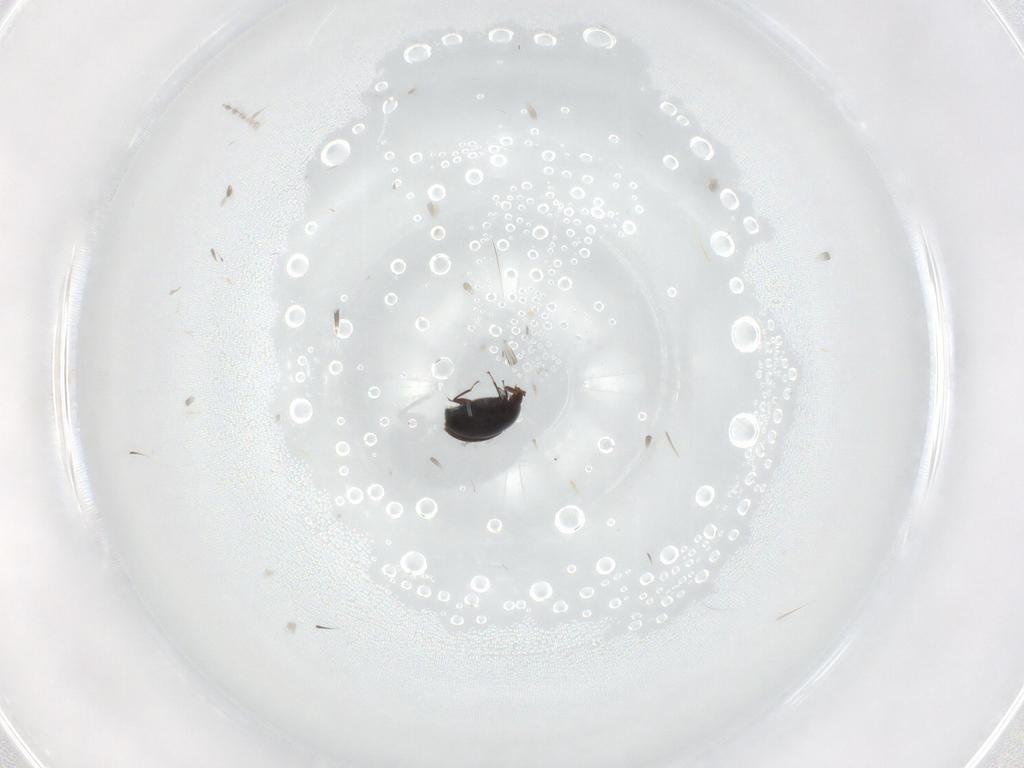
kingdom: Animalia
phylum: Arthropoda
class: Insecta
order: Coleoptera
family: Corylophidae
